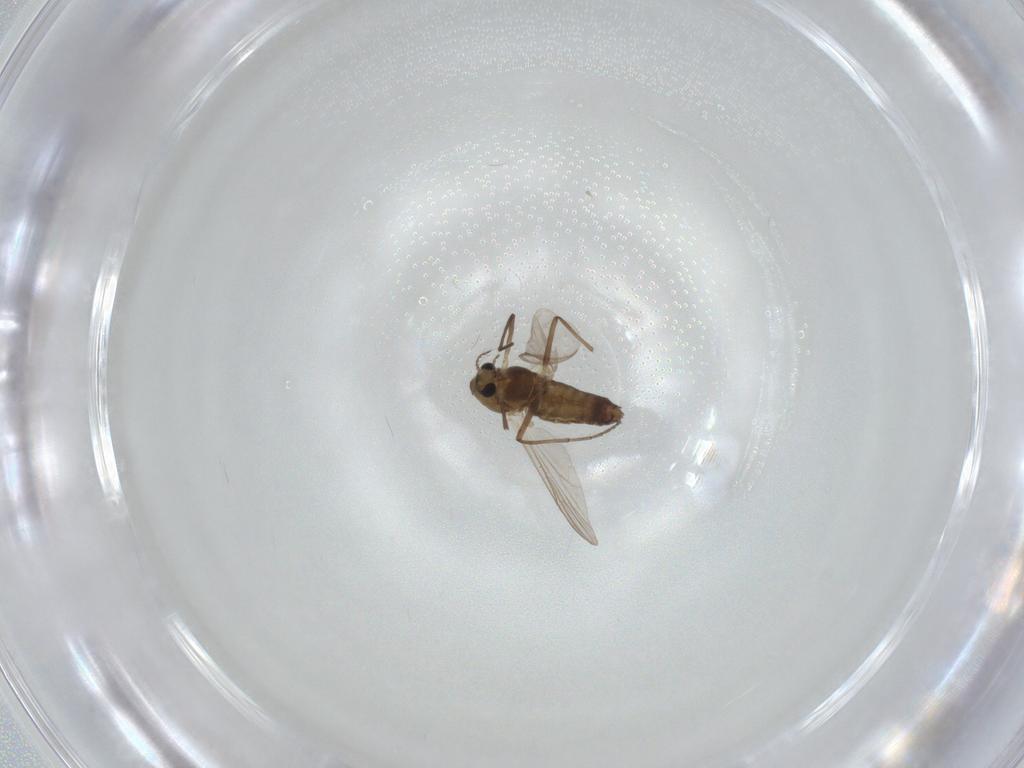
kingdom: Animalia
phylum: Arthropoda
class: Insecta
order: Diptera
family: Chironomidae
